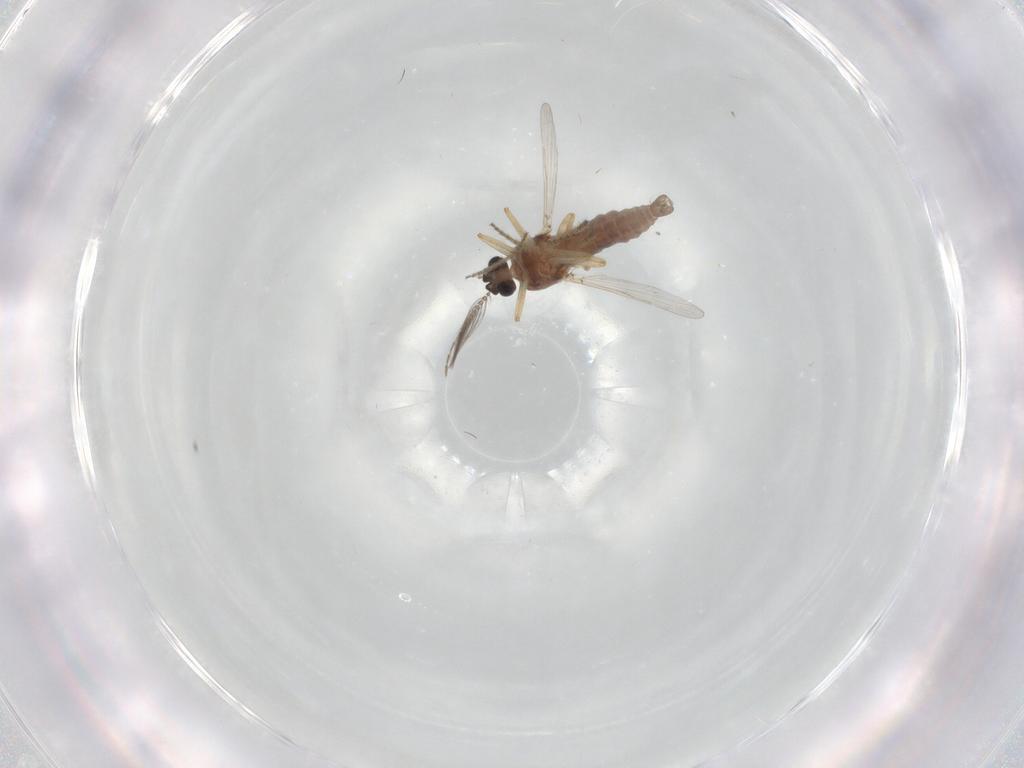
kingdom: Animalia
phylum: Arthropoda
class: Insecta
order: Diptera
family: Ceratopogonidae
